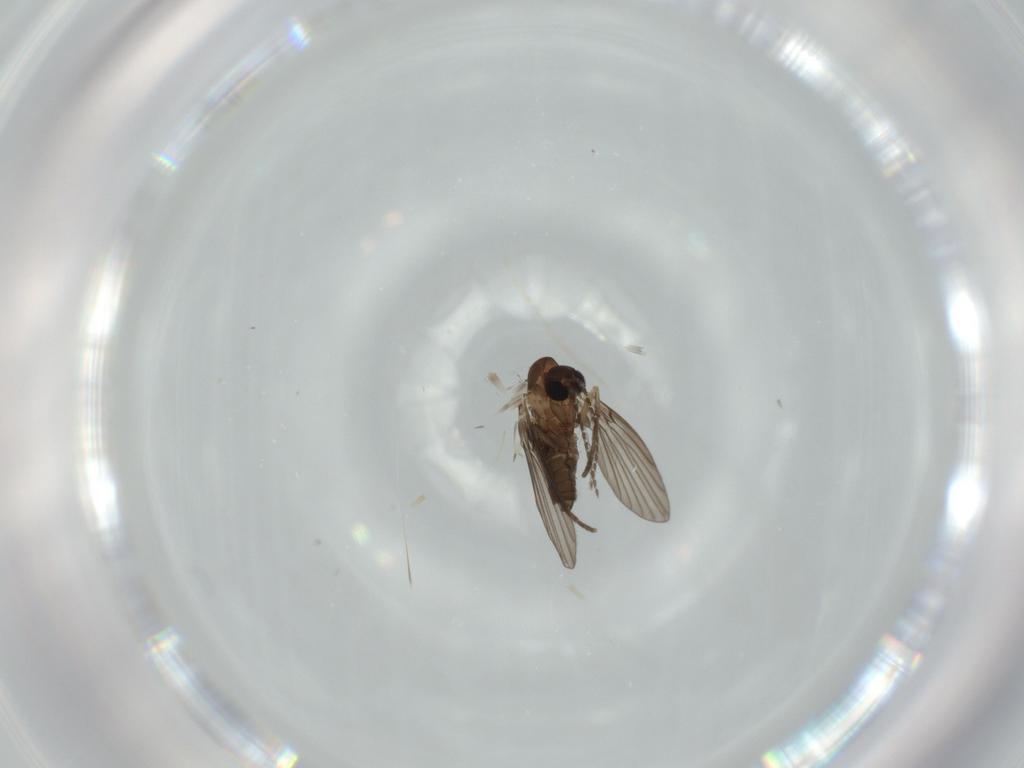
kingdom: Animalia
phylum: Arthropoda
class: Insecta
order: Diptera
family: Psychodidae
